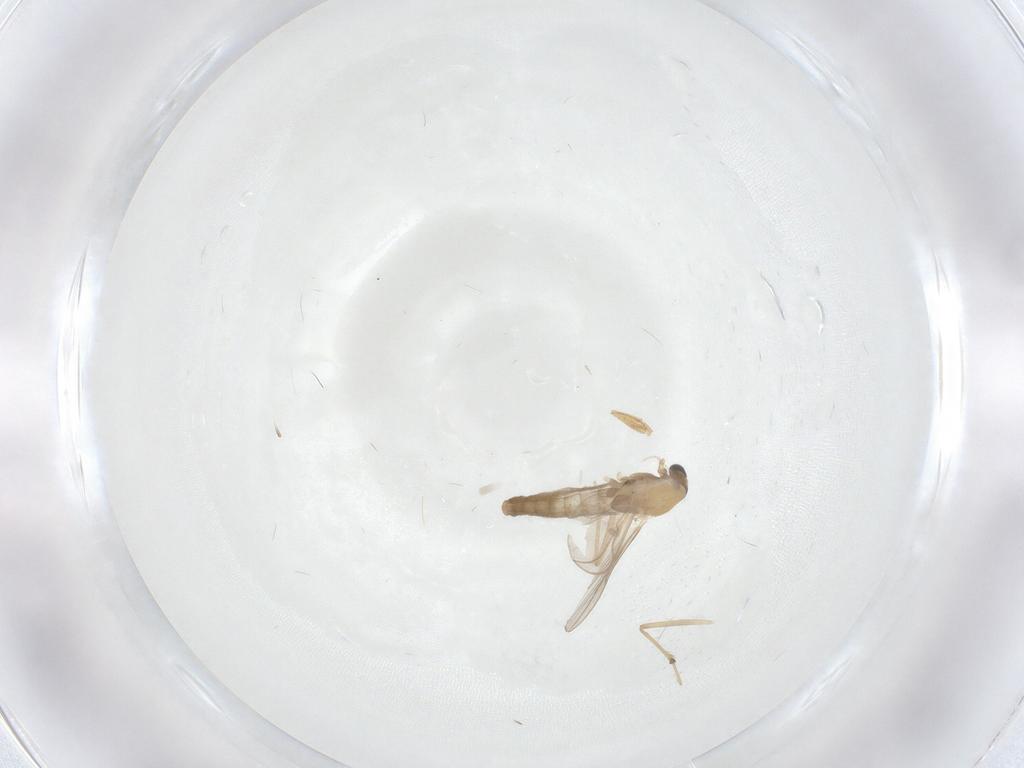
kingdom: Animalia
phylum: Arthropoda
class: Insecta
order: Diptera
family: Chironomidae
